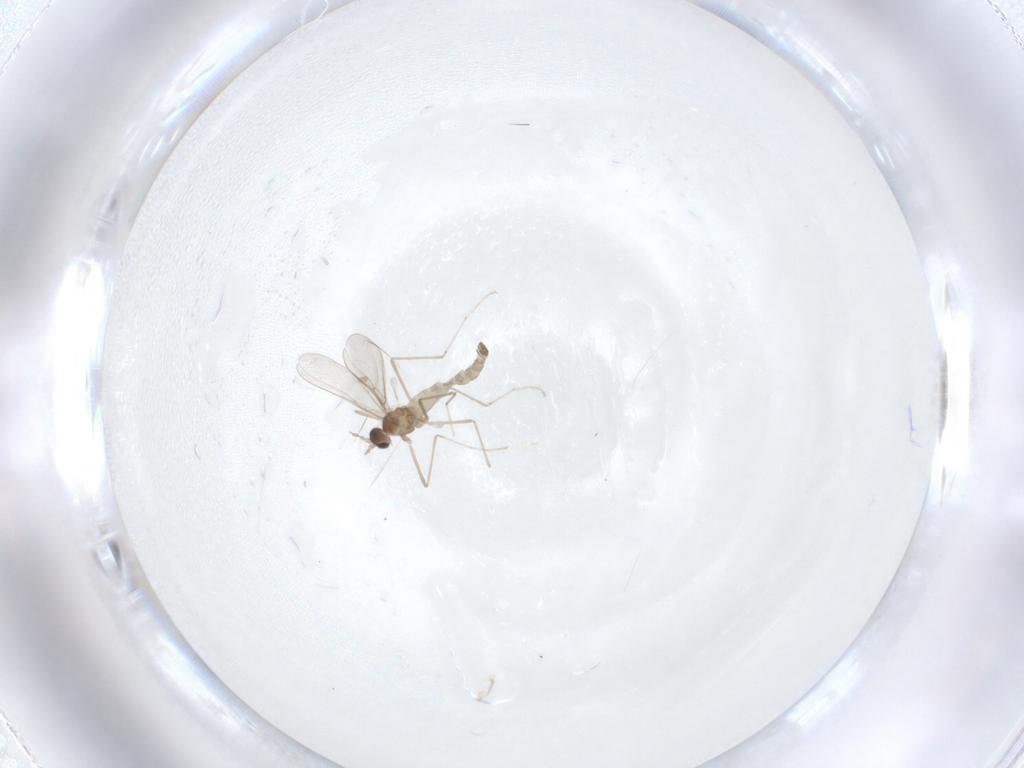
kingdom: Animalia
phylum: Arthropoda
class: Insecta
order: Diptera
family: Cecidomyiidae
